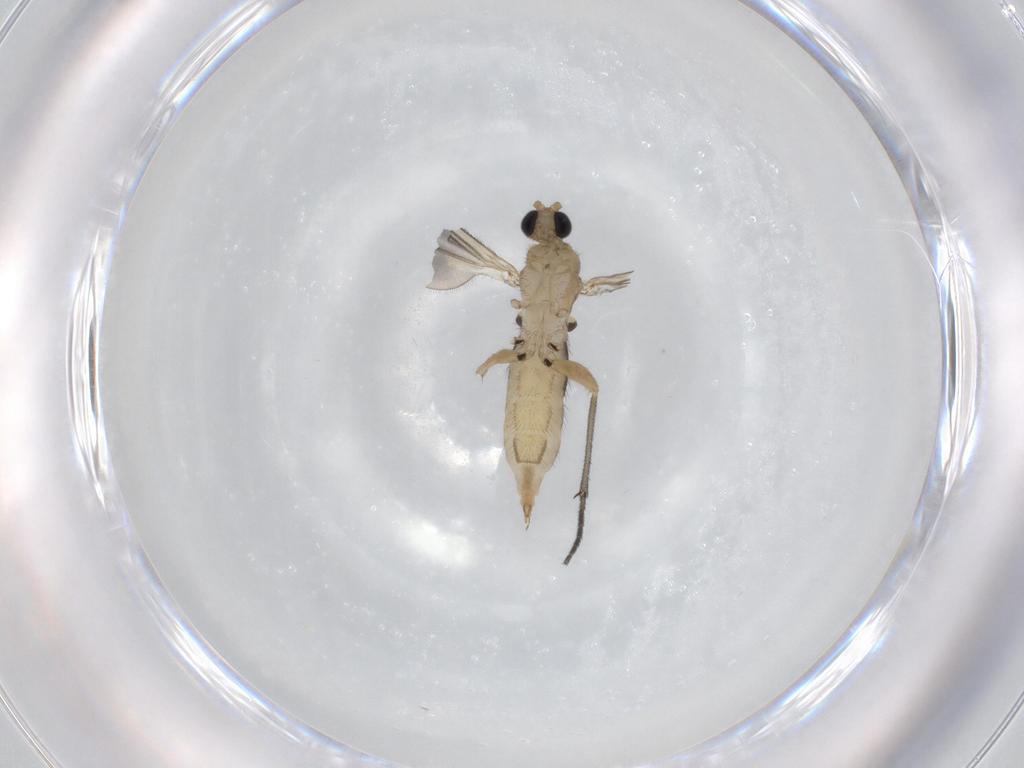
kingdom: Animalia
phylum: Arthropoda
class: Insecta
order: Diptera
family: Sciaridae
